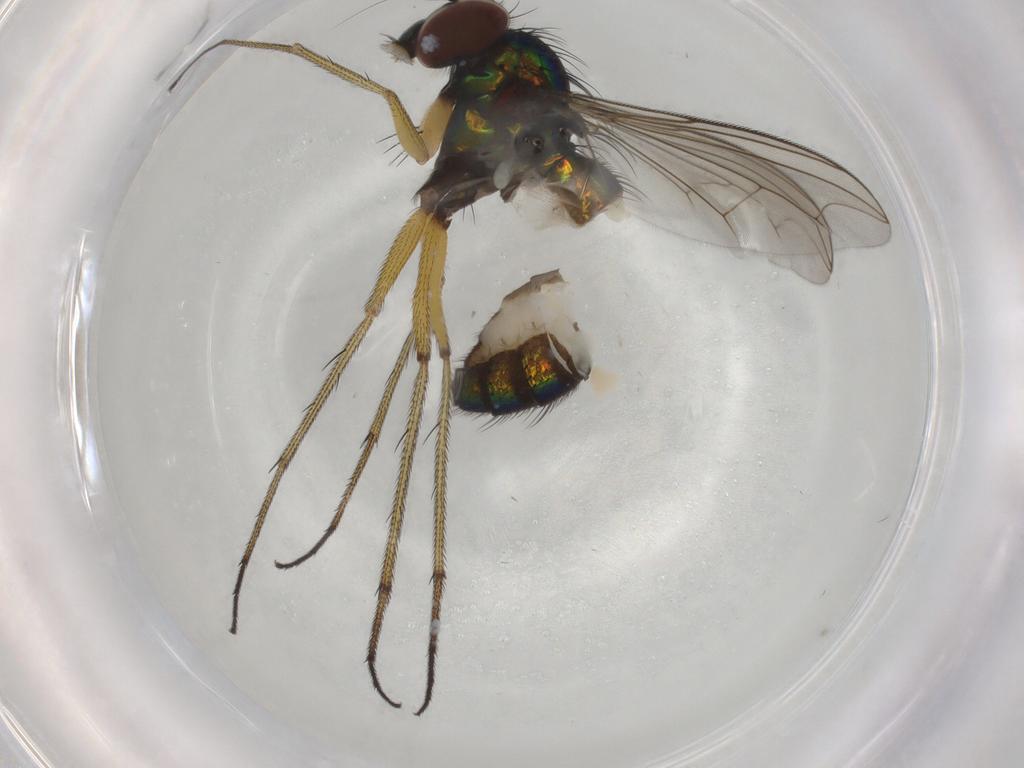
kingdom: Animalia
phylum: Arthropoda
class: Insecta
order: Diptera
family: Dolichopodidae
